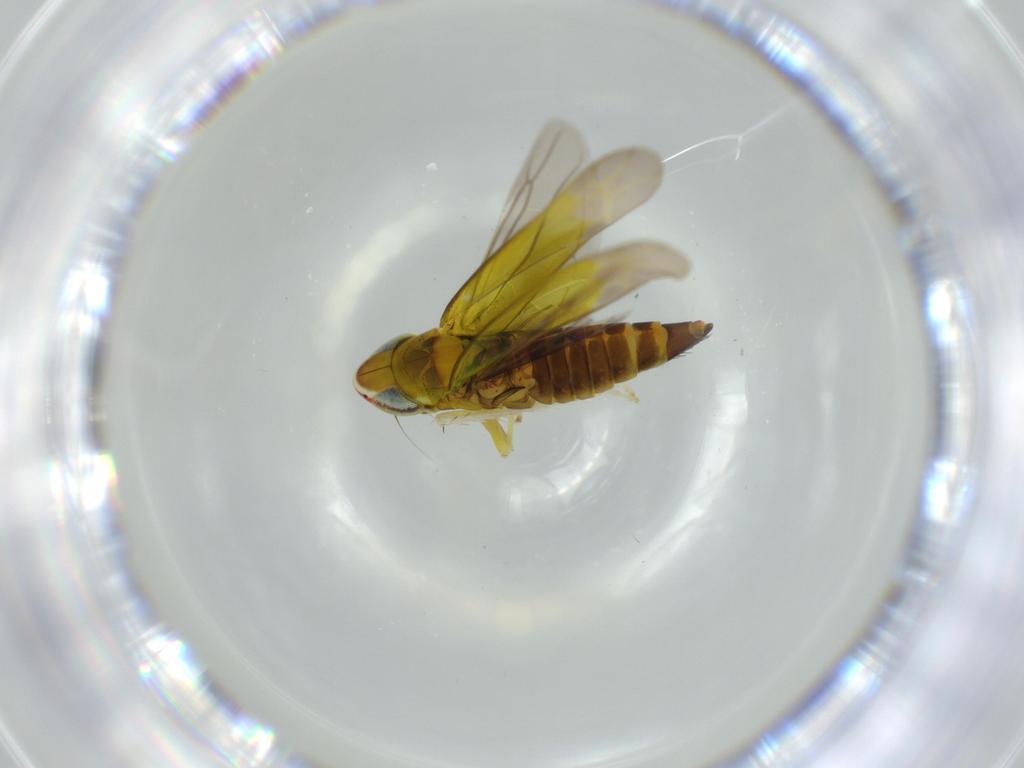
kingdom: Animalia
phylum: Arthropoda
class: Insecta
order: Hemiptera
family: Cicadellidae
